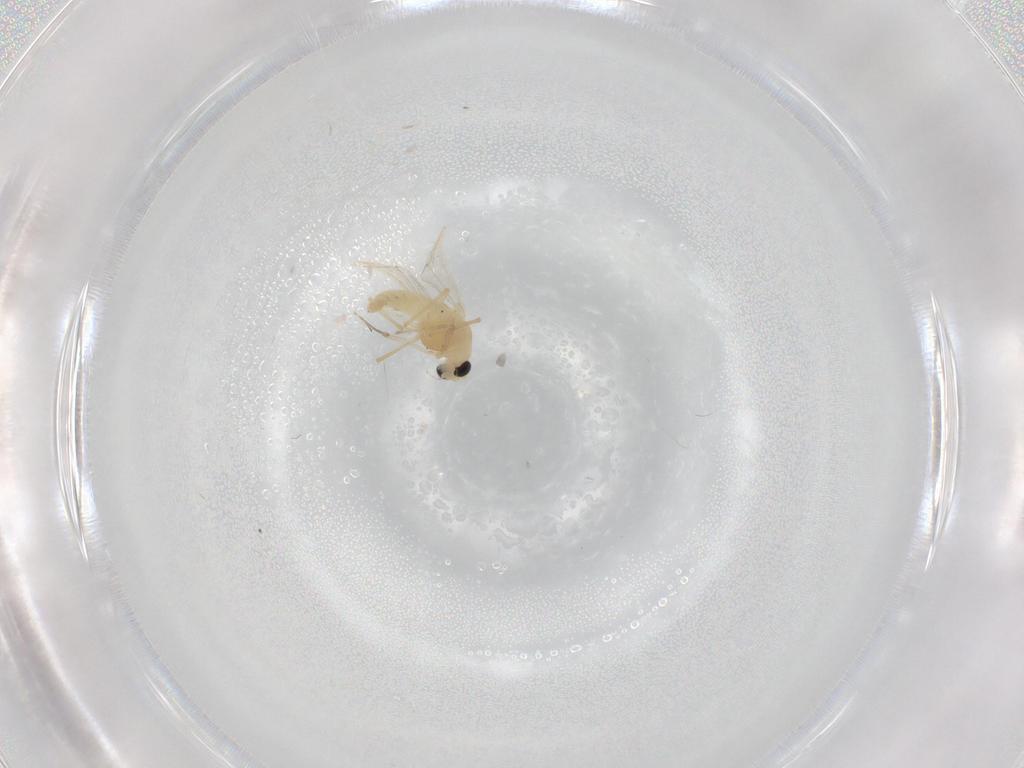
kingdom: Animalia
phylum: Arthropoda
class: Insecta
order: Diptera
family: Chironomidae
